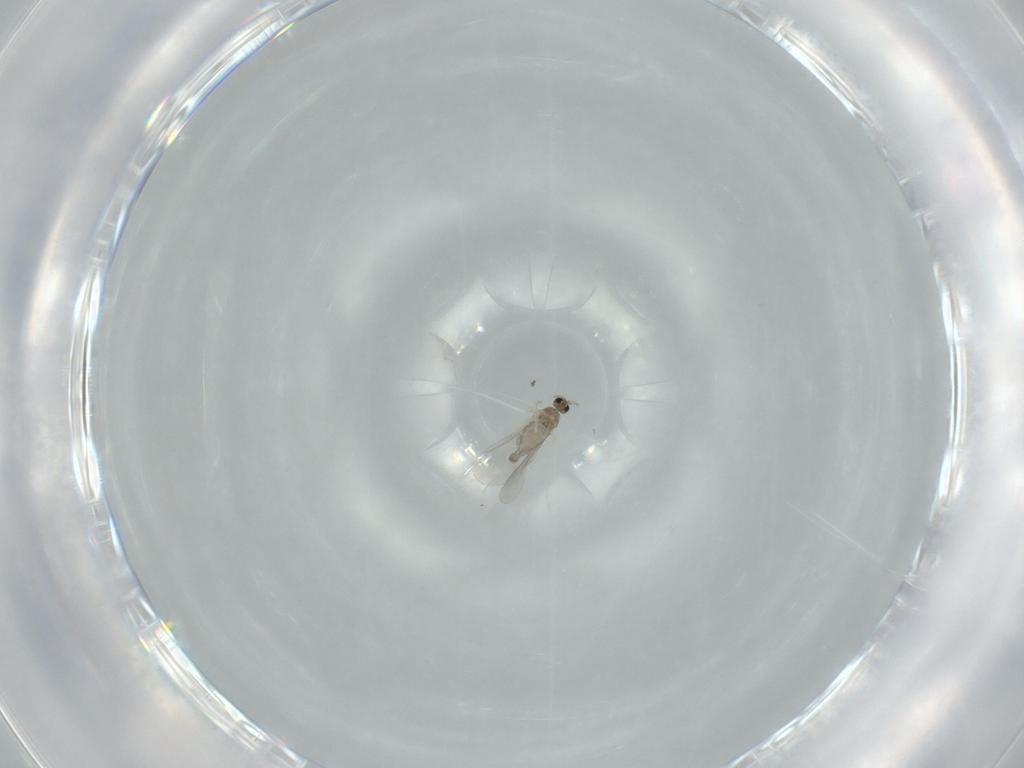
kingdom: Animalia
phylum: Arthropoda
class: Insecta
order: Diptera
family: Cecidomyiidae
